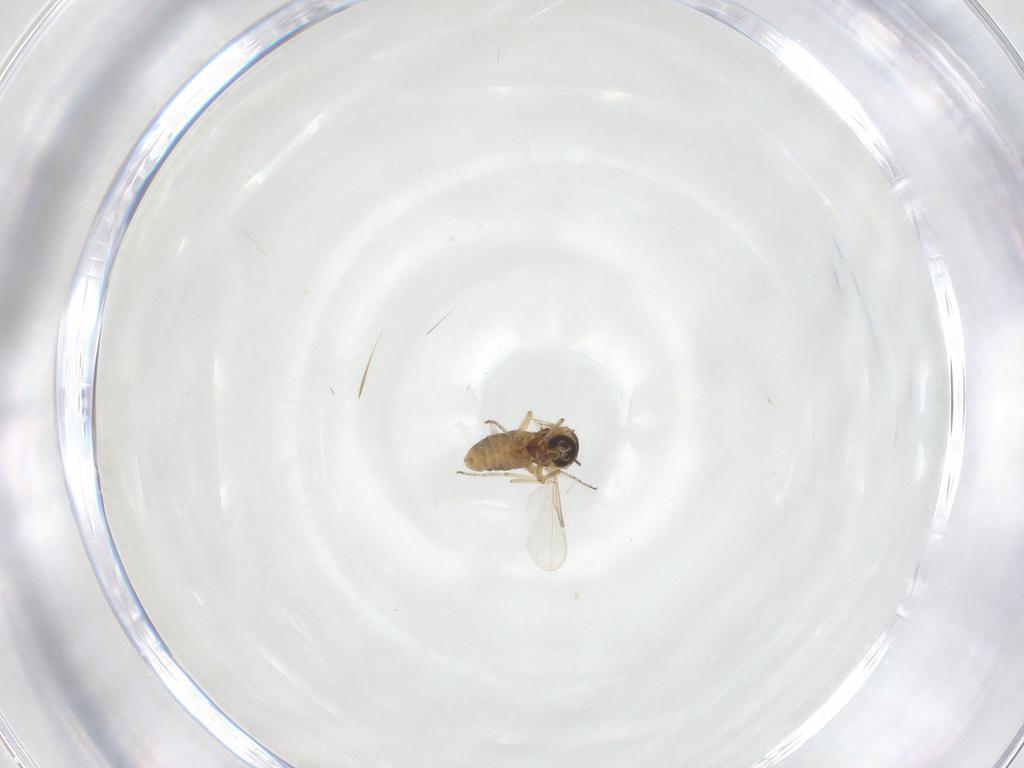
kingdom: Animalia
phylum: Arthropoda
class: Insecta
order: Diptera
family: Ceratopogonidae
